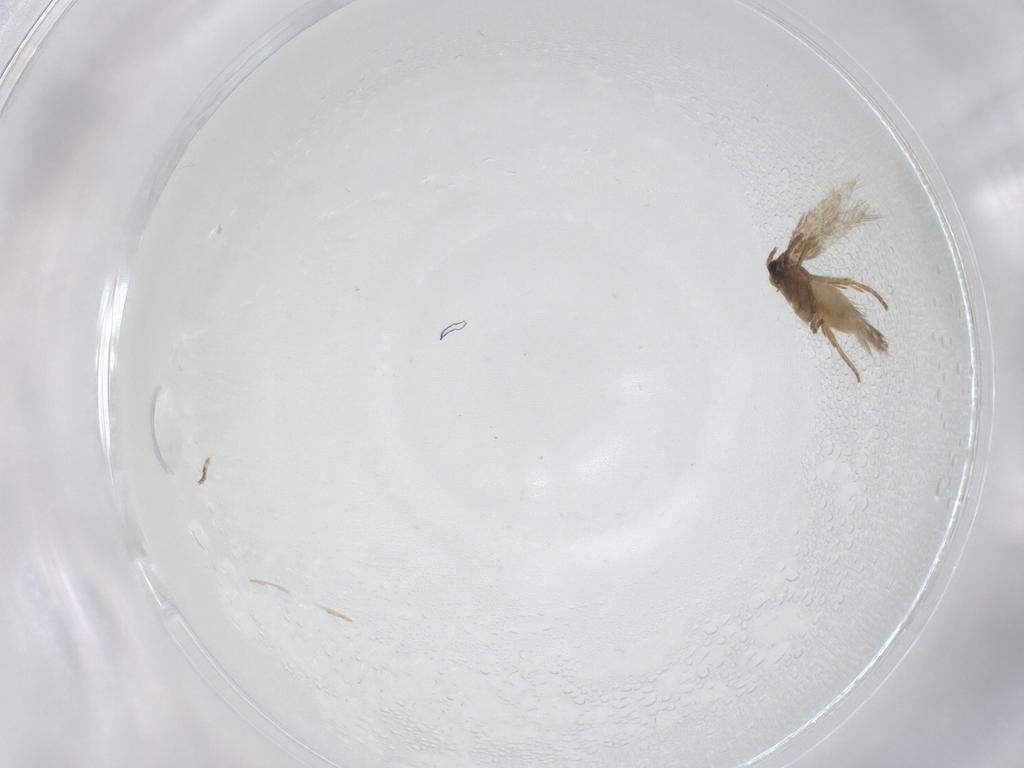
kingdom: Animalia
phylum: Arthropoda
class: Insecta
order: Lepidoptera
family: Nepticulidae
